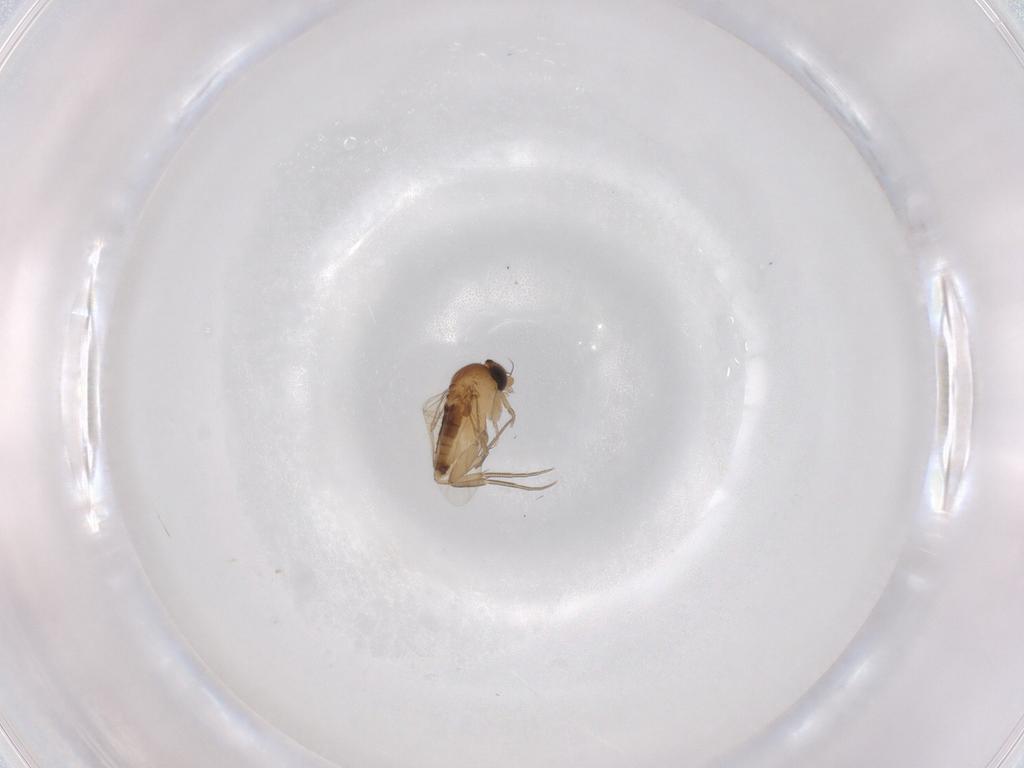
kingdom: Animalia
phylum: Arthropoda
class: Insecta
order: Diptera
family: Phoridae
